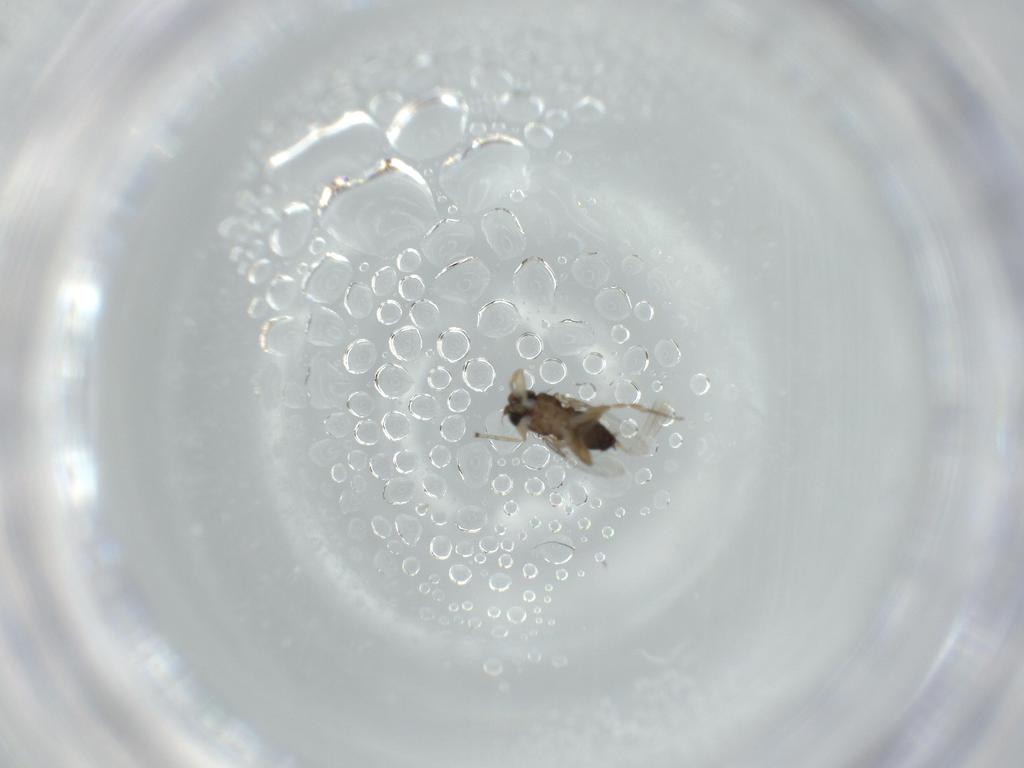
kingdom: Animalia
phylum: Arthropoda
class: Insecta
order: Diptera
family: Phoridae
